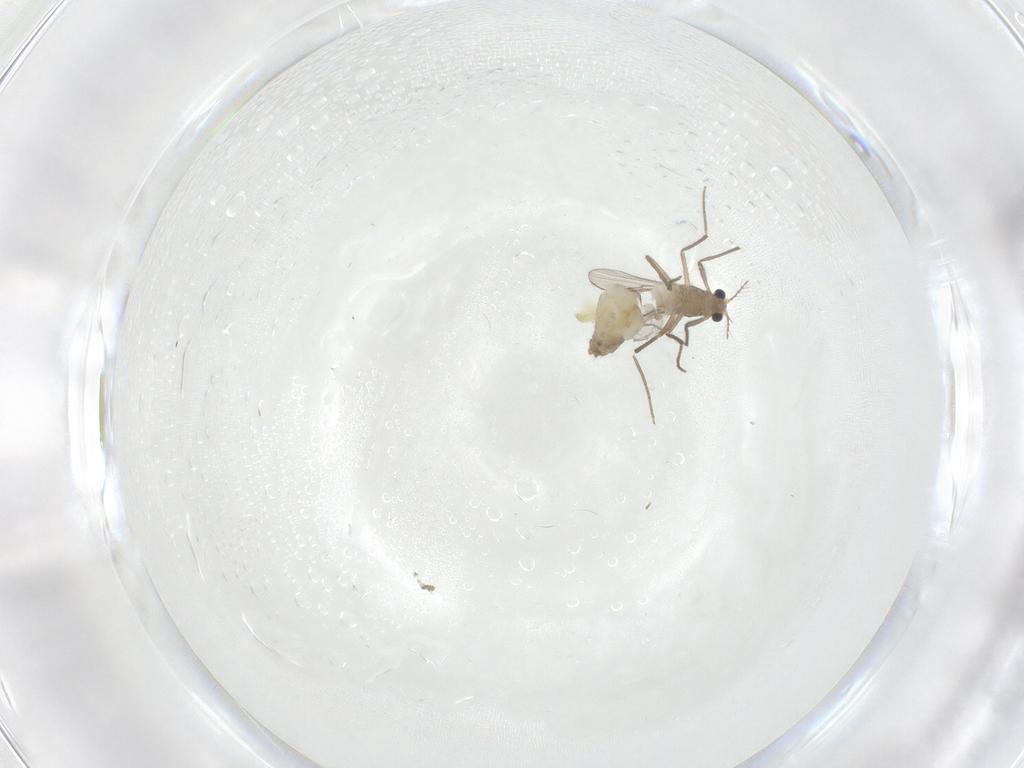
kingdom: Animalia
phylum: Arthropoda
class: Insecta
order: Diptera
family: Chironomidae
